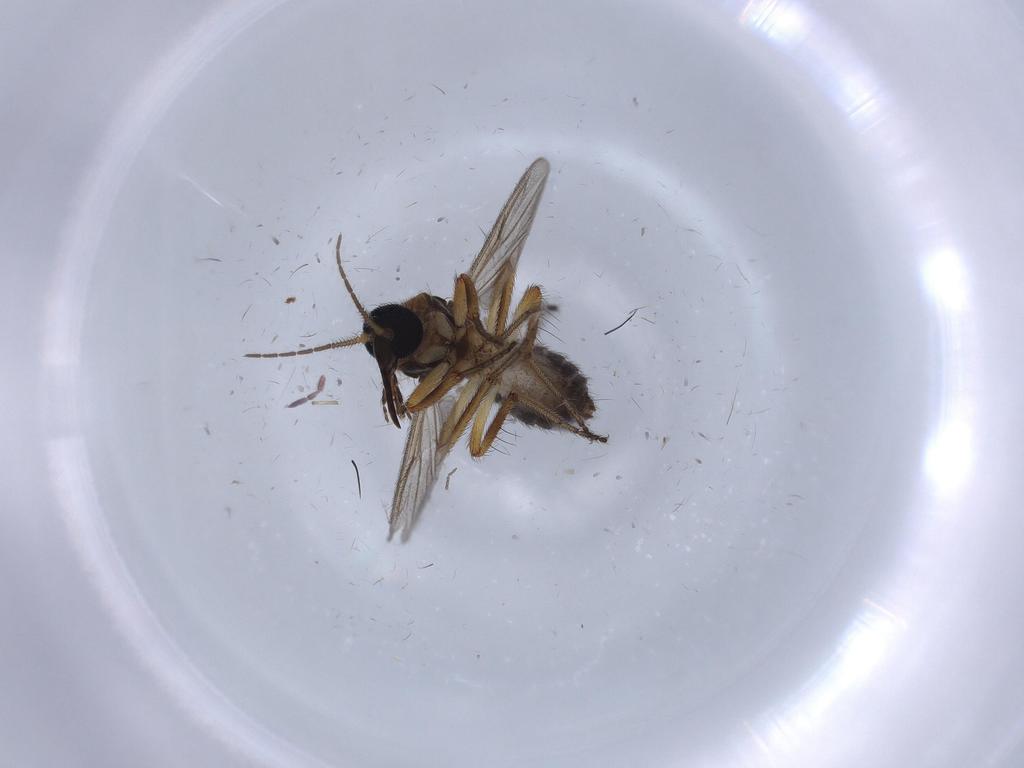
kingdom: Animalia
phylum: Arthropoda
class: Insecta
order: Diptera
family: Ceratopogonidae
